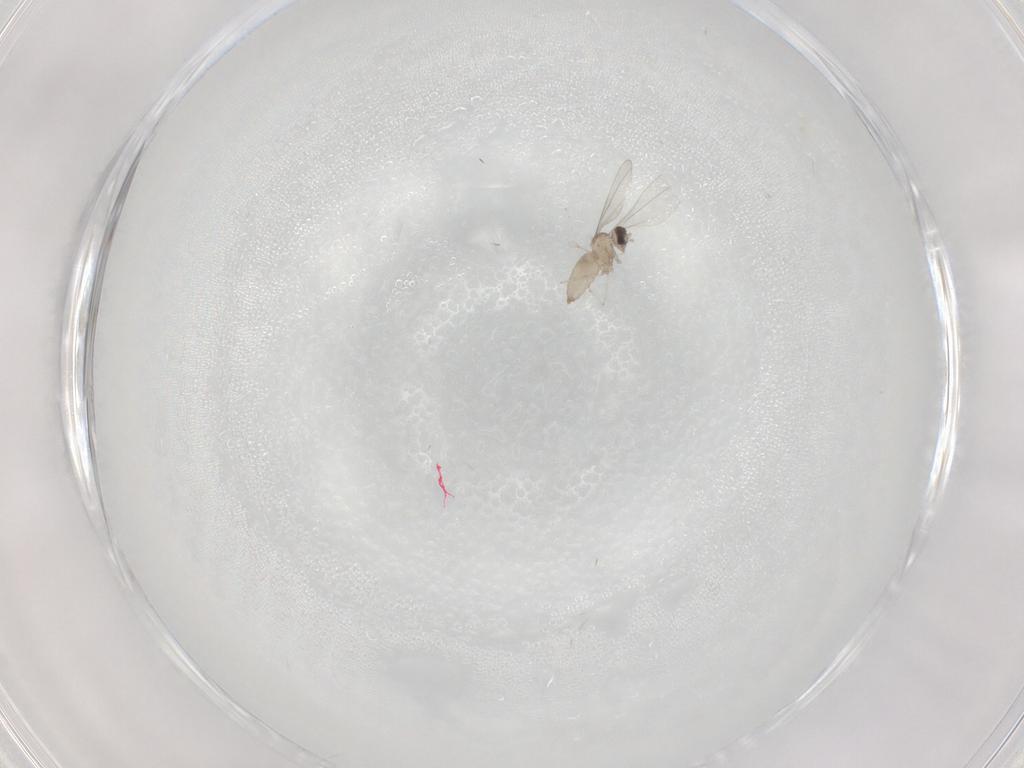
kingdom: Animalia
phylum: Arthropoda
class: Insecta
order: Diptera
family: Cecidomyiidae
